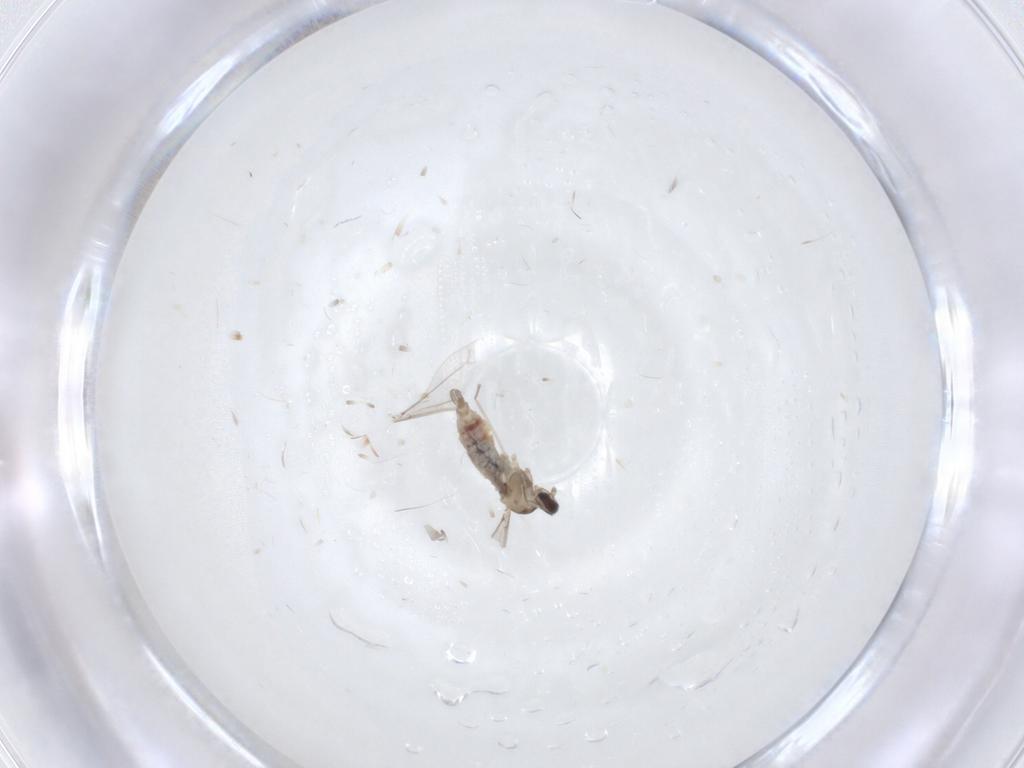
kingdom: Animalia
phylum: Arthropoda
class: Insecta
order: Diptera
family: Cecidomyiidae
